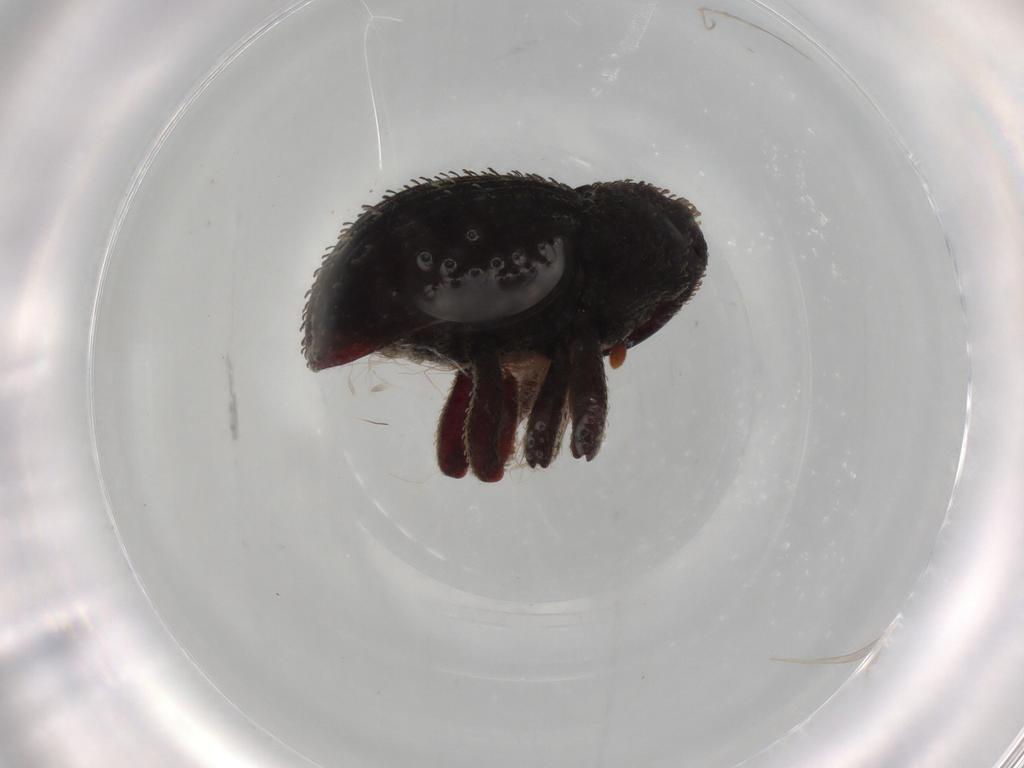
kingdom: Animalia
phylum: Arthropoda
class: Insecta
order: Coleoptera
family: Curculionidae
